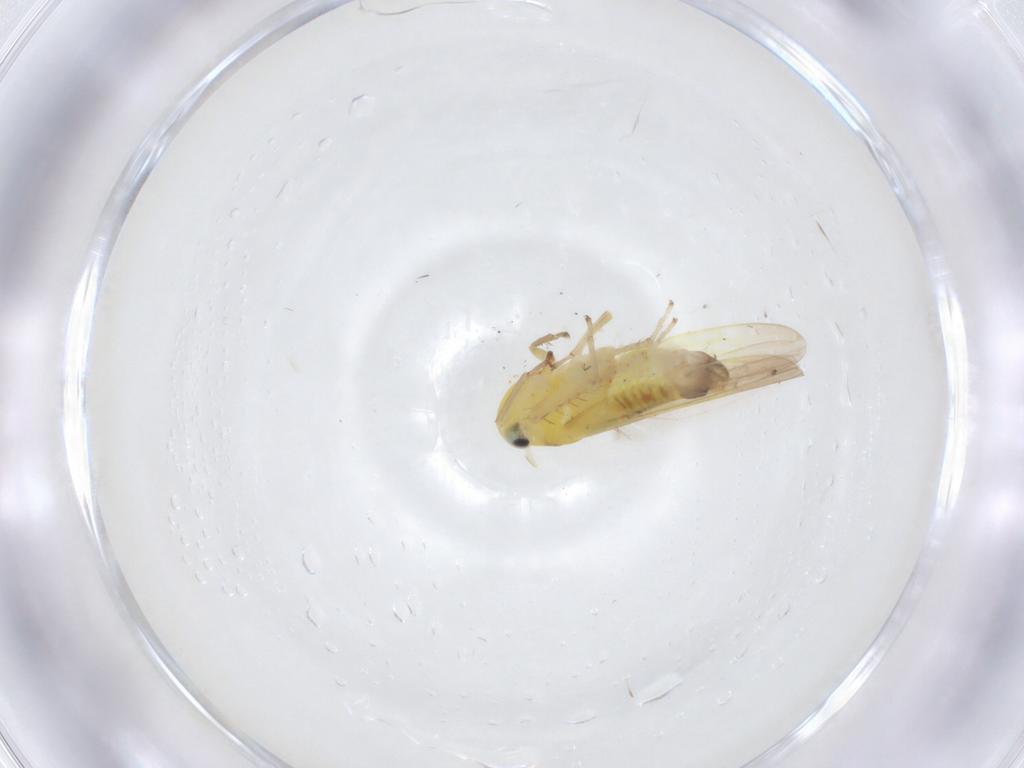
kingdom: Animalia
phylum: Arthropoda
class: Insecta
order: Hemiptera
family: Cicadellidae
